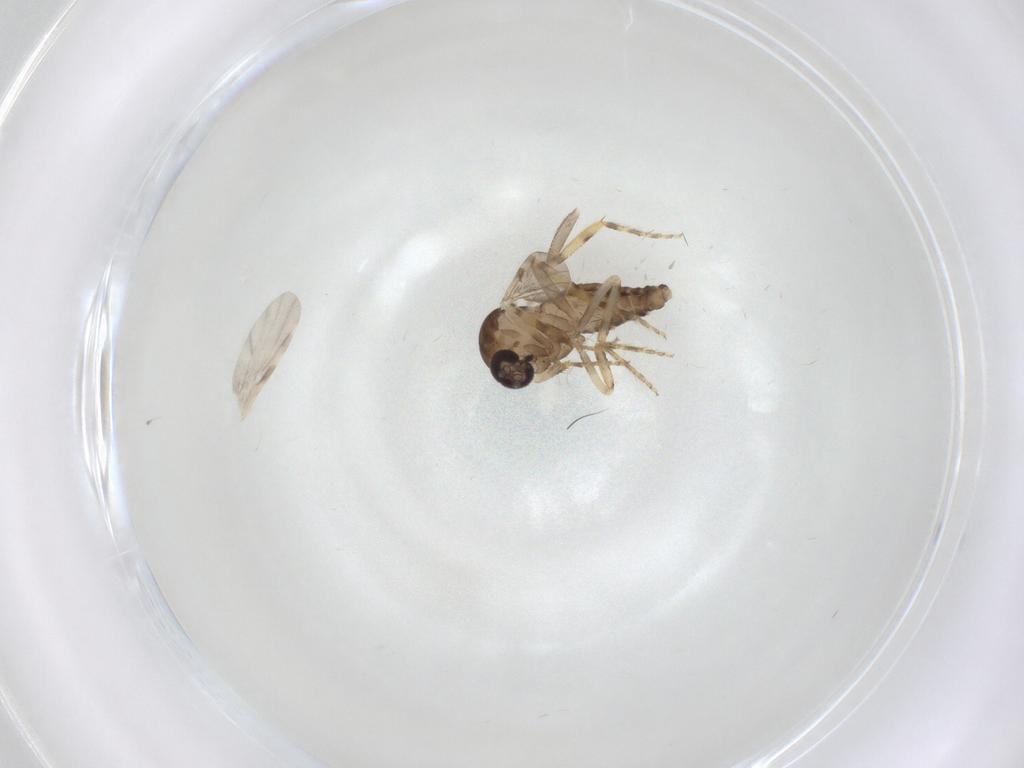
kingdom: Animalia
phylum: Arthropoda
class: Insecta
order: Diptera
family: Ceratopogonidae
